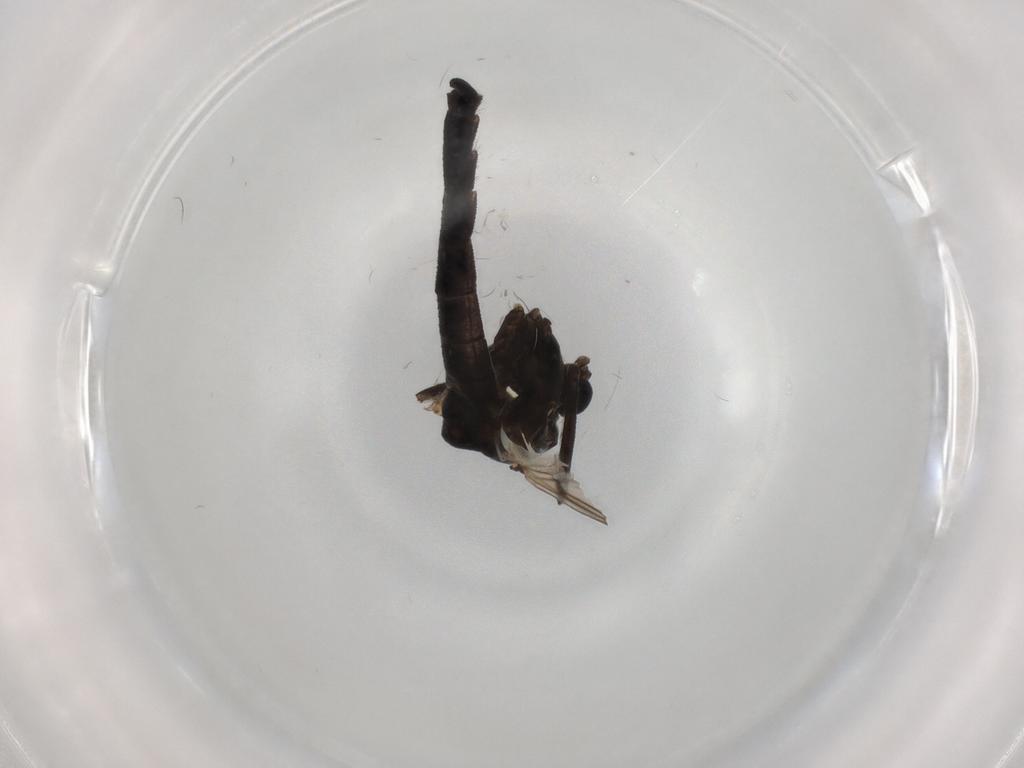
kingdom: Animalia
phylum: Arthropoda
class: Insecta
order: Diptera
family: Chironomidae
